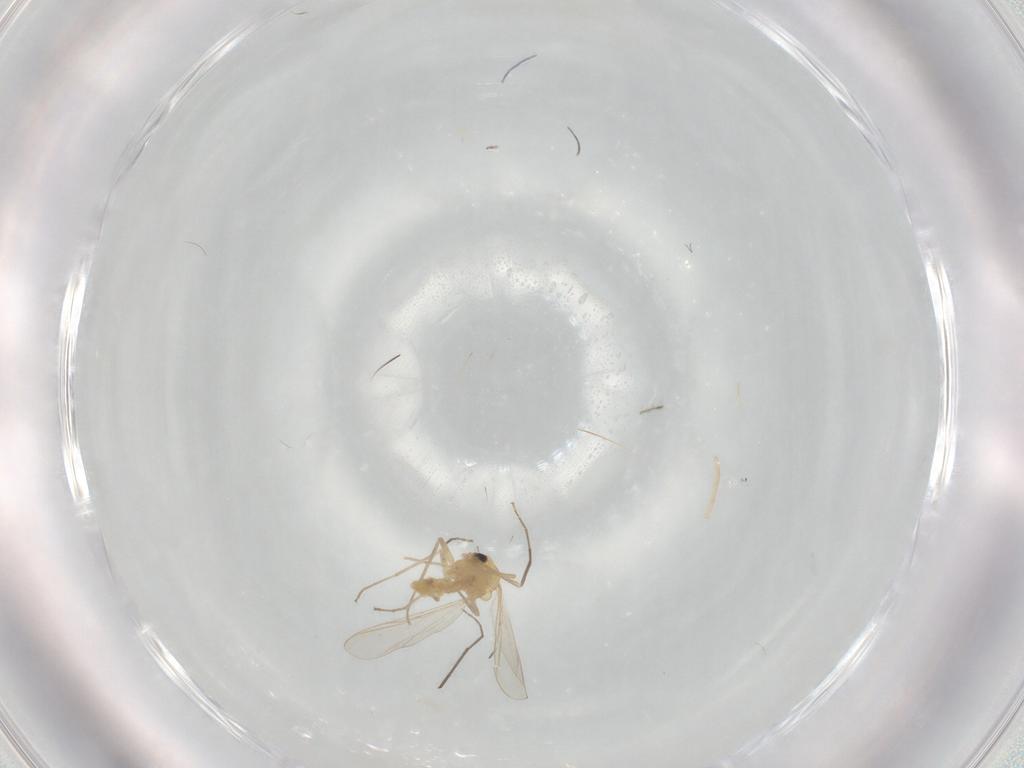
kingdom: Animalia
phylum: Arthropoda
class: Insecta
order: Diptera
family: Chironomidae
